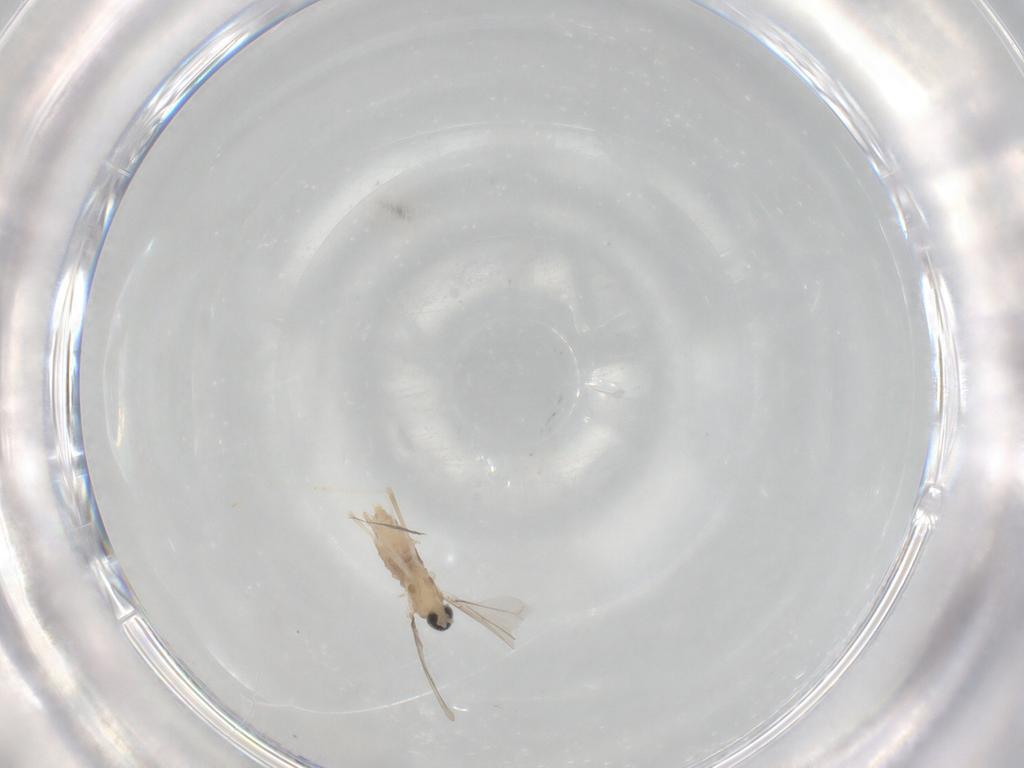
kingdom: Animalia
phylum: Arthropoda
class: Insecta
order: Diptera
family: Cecidomyiidae
